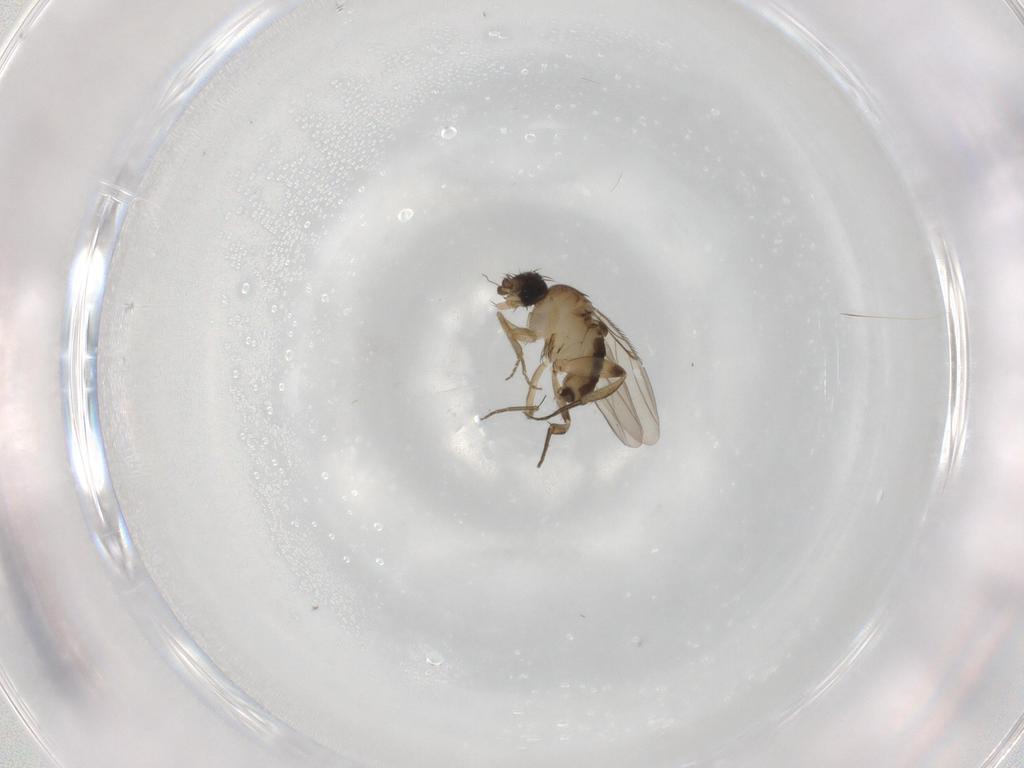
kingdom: Animalia
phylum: Arthropoda
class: Insecta
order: Diptera
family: Phoridae
